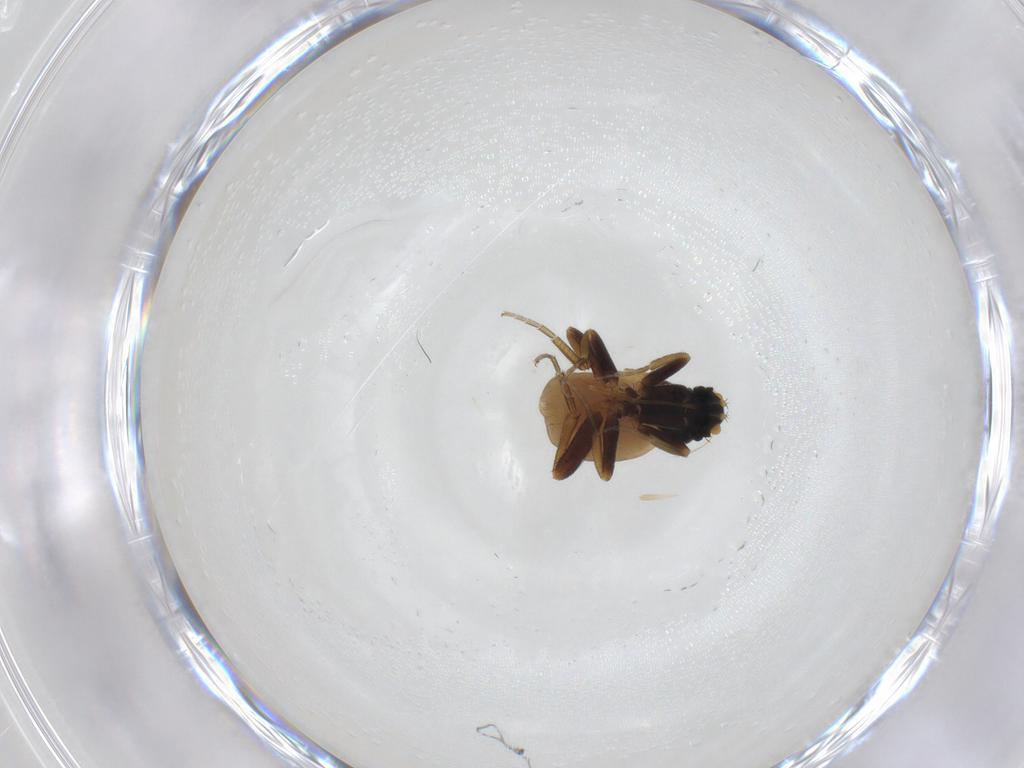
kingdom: Animalia
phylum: Arthropoda
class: Insecta
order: Diptera
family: Phoridae
